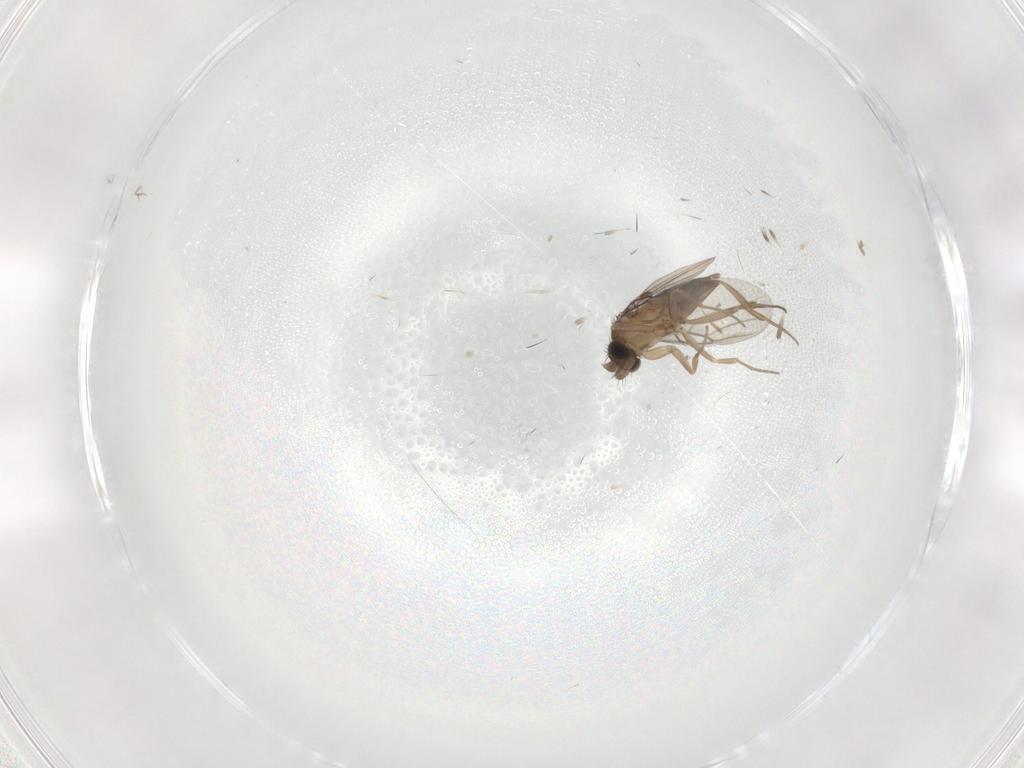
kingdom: Animalia
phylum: Arthropoda
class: Insecta
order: Diptera
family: Phoridae
